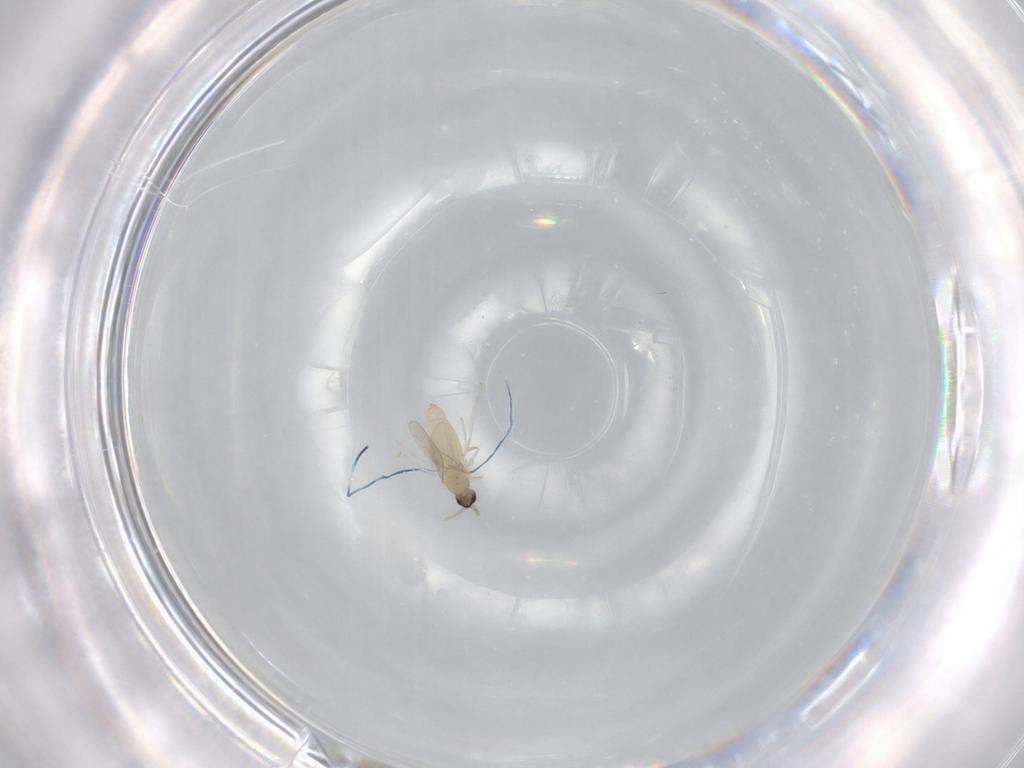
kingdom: Animalia
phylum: Arthropoda
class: Insecta
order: Diptera
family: Cecidomyiidae
